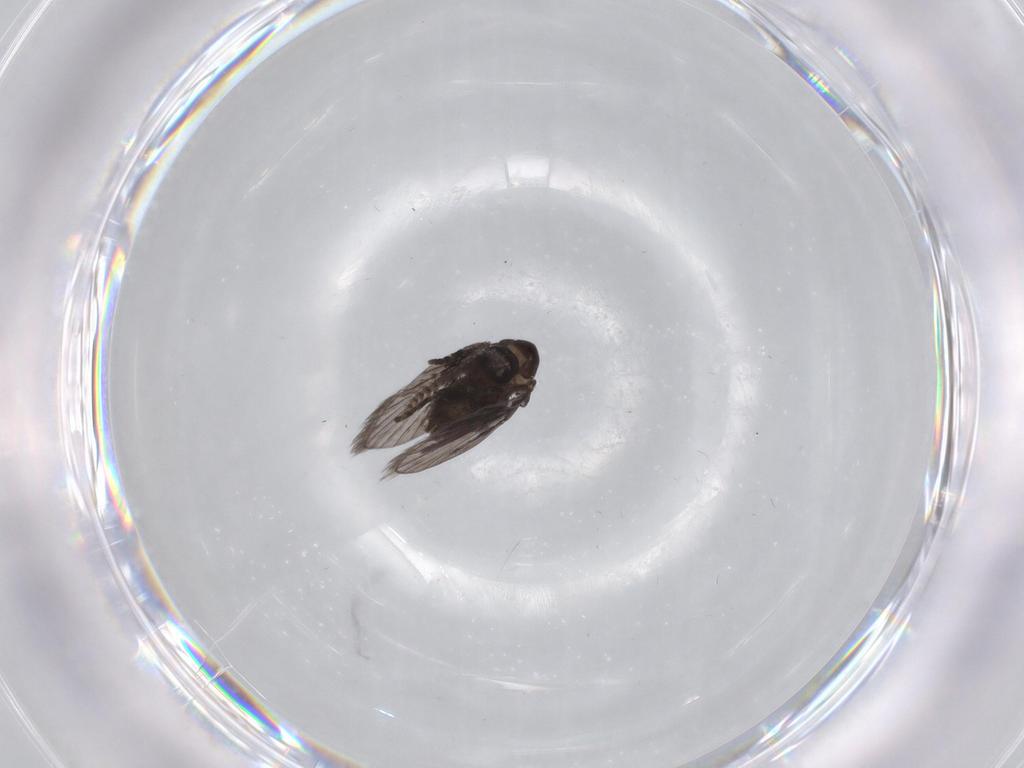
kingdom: Animalia
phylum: Arthropoda
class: Insecta
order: Diptera
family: Psychodidae
